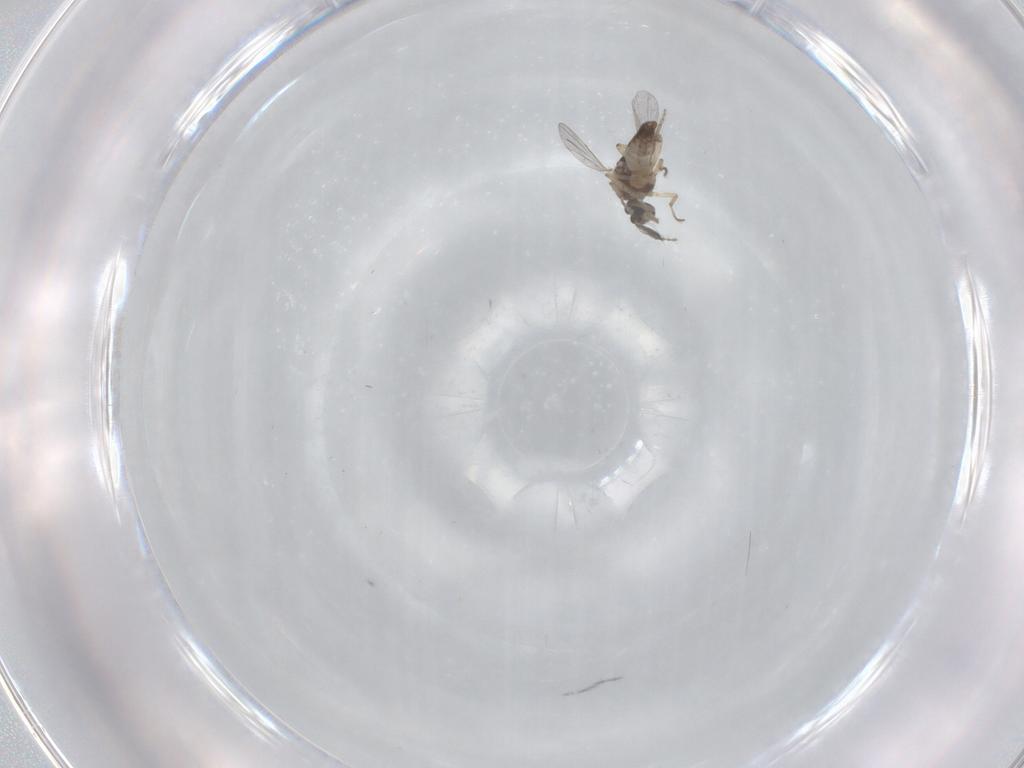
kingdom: Animalia
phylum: Arthropoda
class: Insecta
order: Diptera
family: Ceratopogonidae
